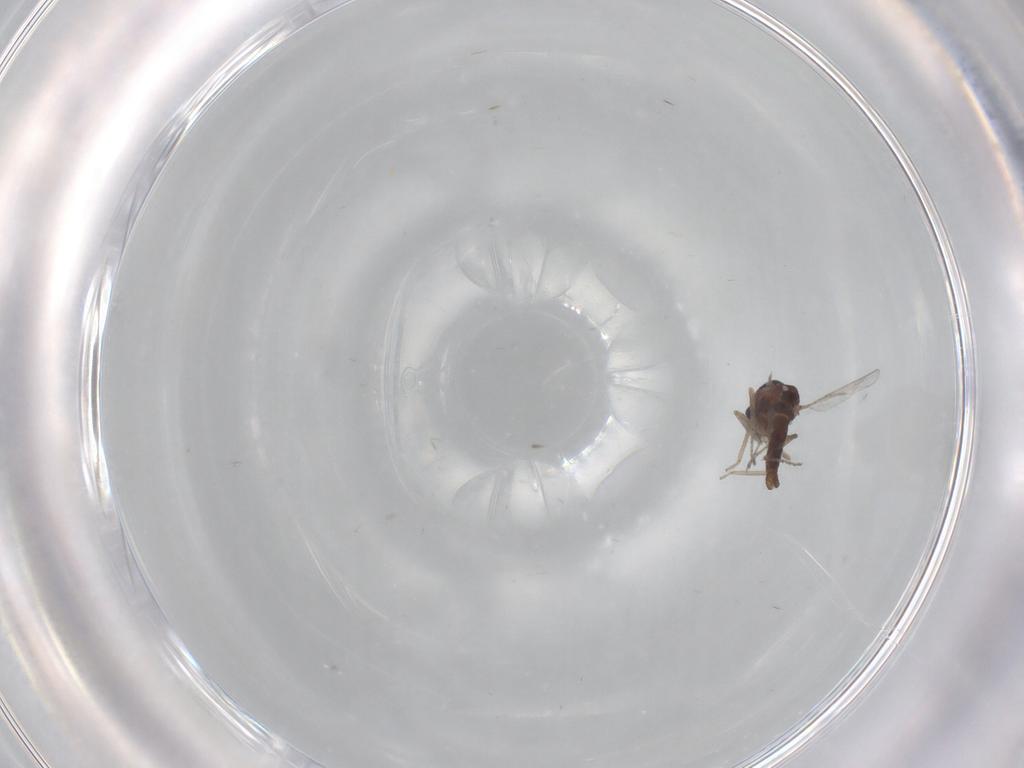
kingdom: Animalia
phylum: Arthropoda
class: Insecta
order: Diptera
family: Ceratopogonidae
